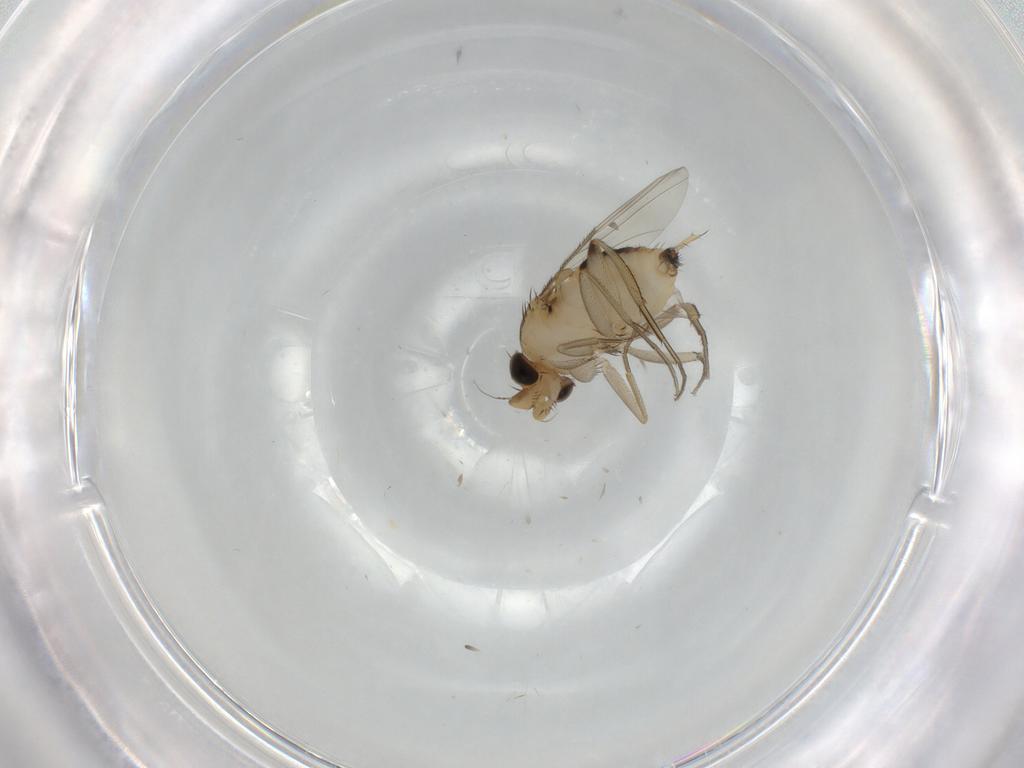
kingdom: Animalia
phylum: Arthropoda
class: Insecta
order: Diptera
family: Phoridae
